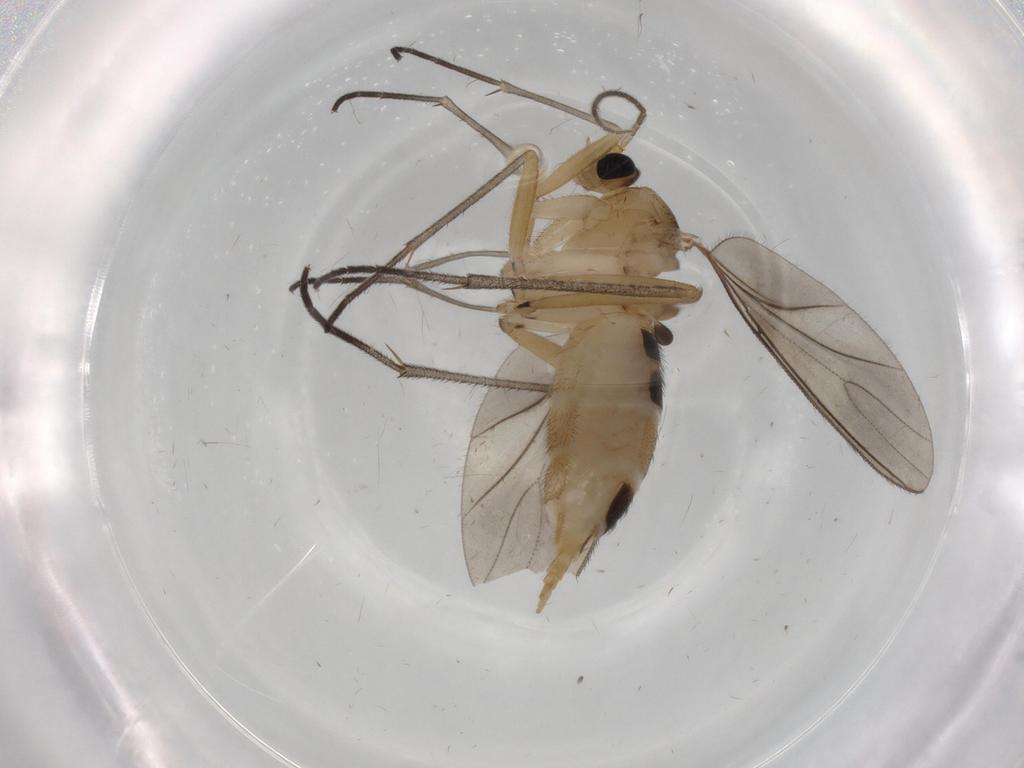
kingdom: Animalia
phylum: Arthropoda
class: Insecta
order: Diptera
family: Sciaridae
